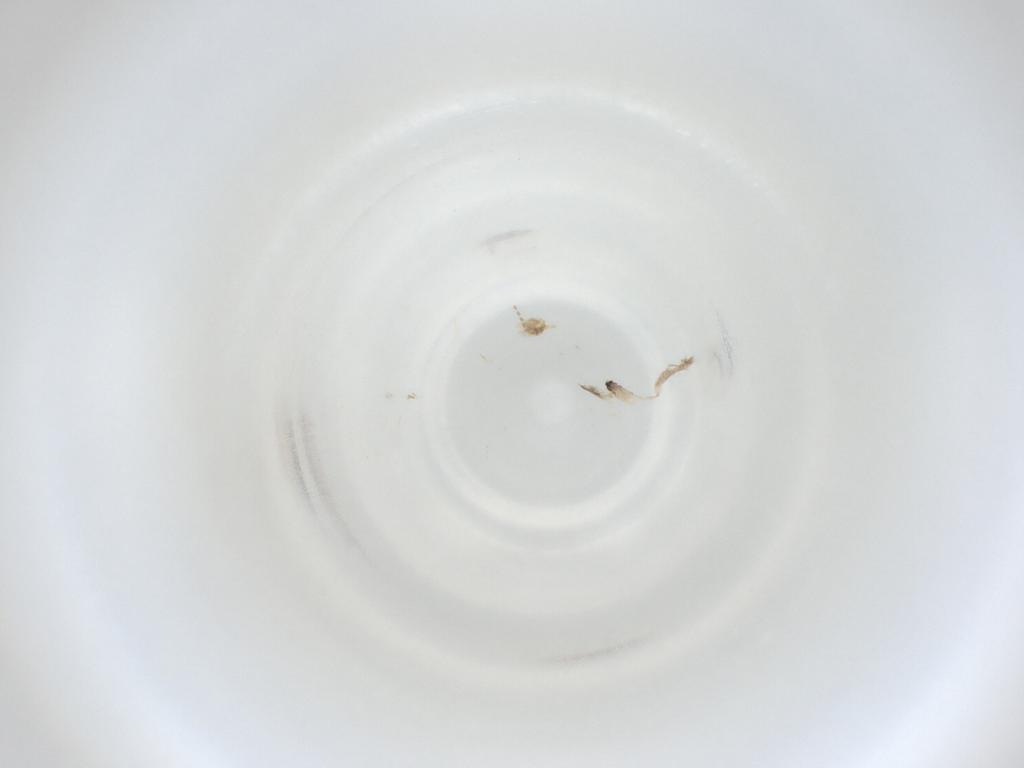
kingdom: Animalia
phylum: Arthropoda
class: Insecta
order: Diptera
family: Cecidomyiidae
